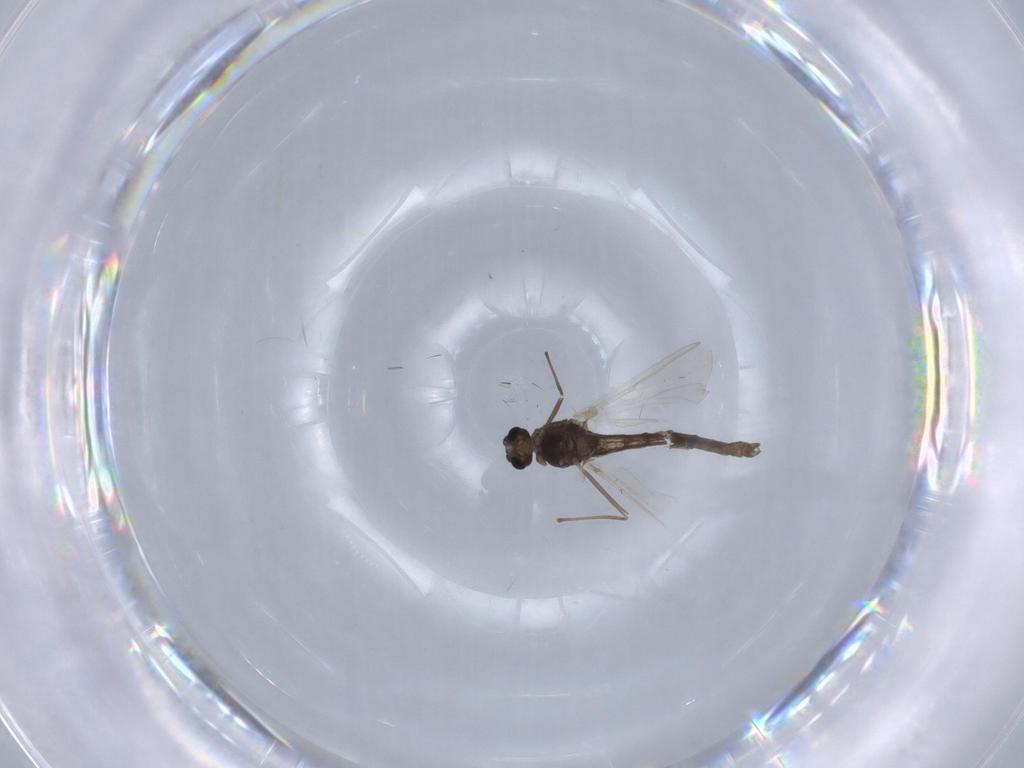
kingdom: Animalia
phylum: Arthropoda
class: Insecta
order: Diptera
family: Chironomidae
